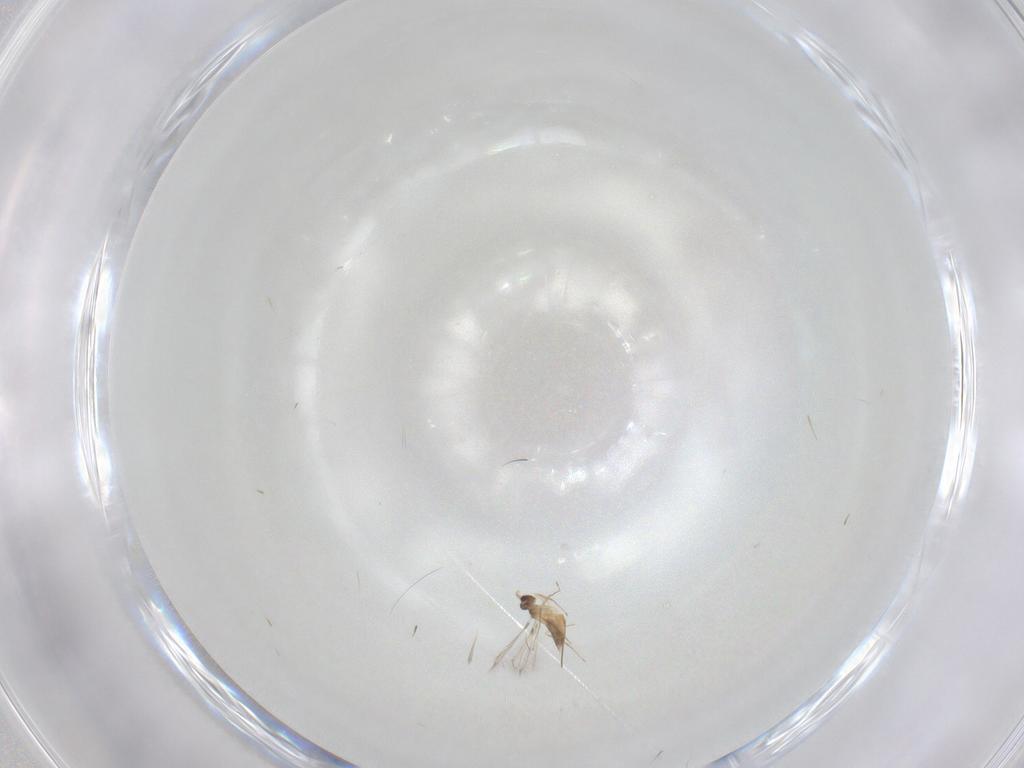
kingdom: Animalia
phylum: Arthropoda
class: Insecta
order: Hymenoptera
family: Mymaridae
